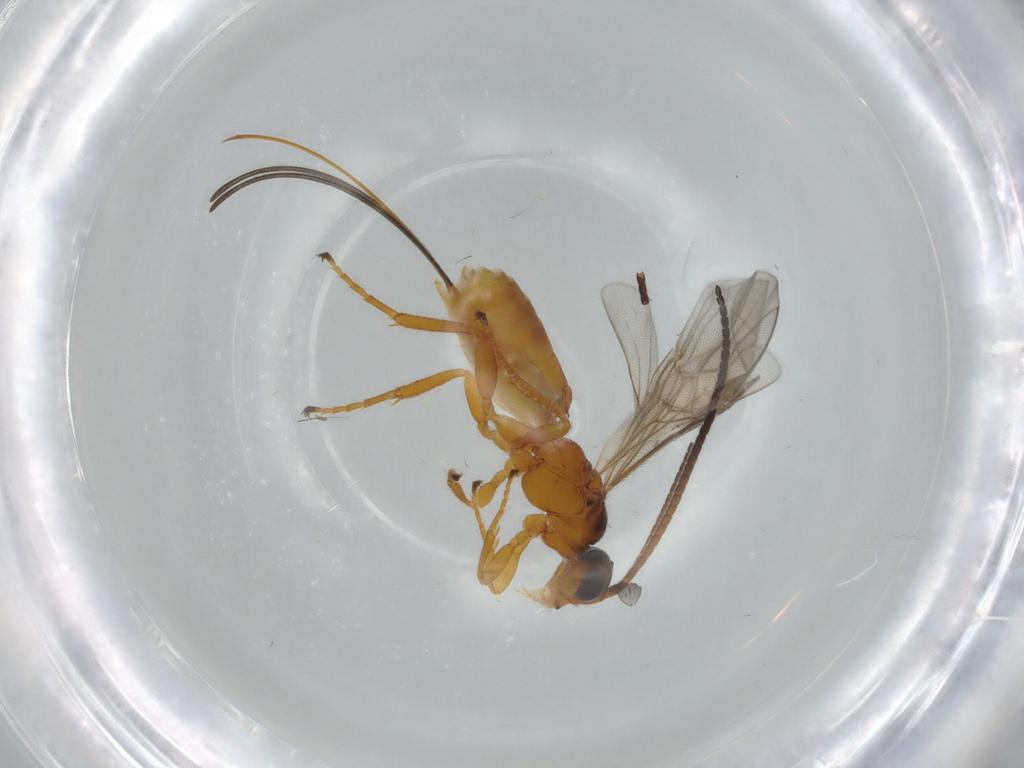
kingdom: Animalia
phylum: Arthropoda
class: Insecta
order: Hymenoptera
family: Braconidae
